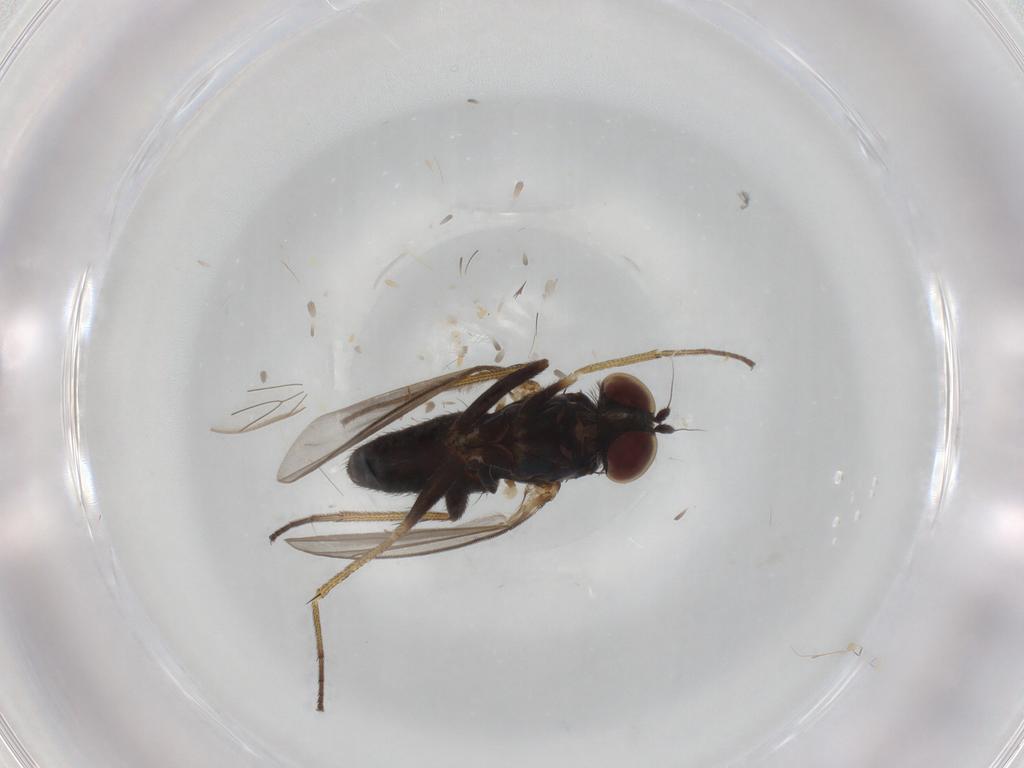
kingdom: Animalia
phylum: Arthropoda
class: Insecta
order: Diptera
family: Dolichopodidae
